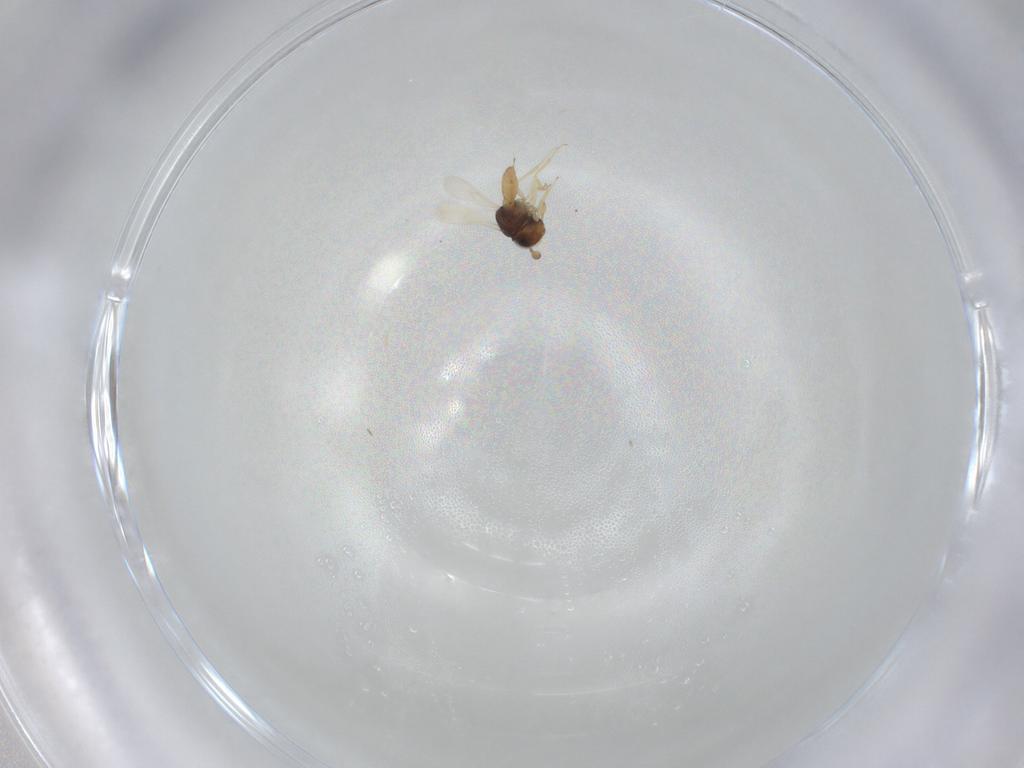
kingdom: Animalia
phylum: Arthropoda
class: Insecta
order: Hymenoptera
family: Scelionidae
